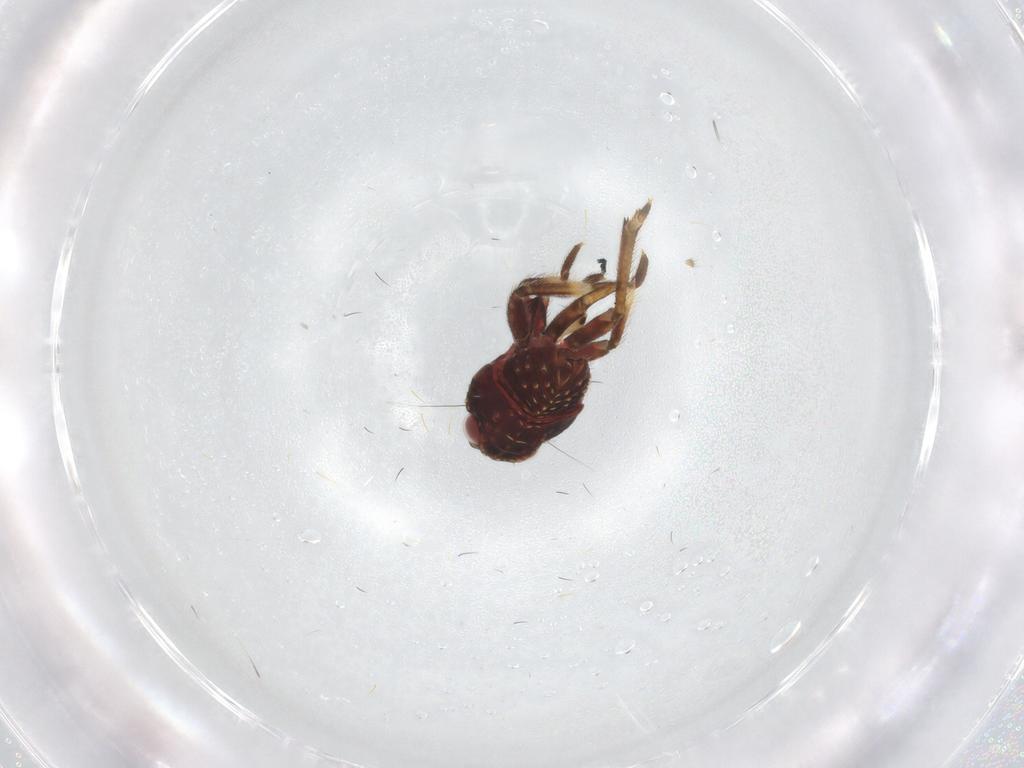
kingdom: Animalia
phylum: Arthropoda
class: Insecta
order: Hemiptera
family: Cixiidae
